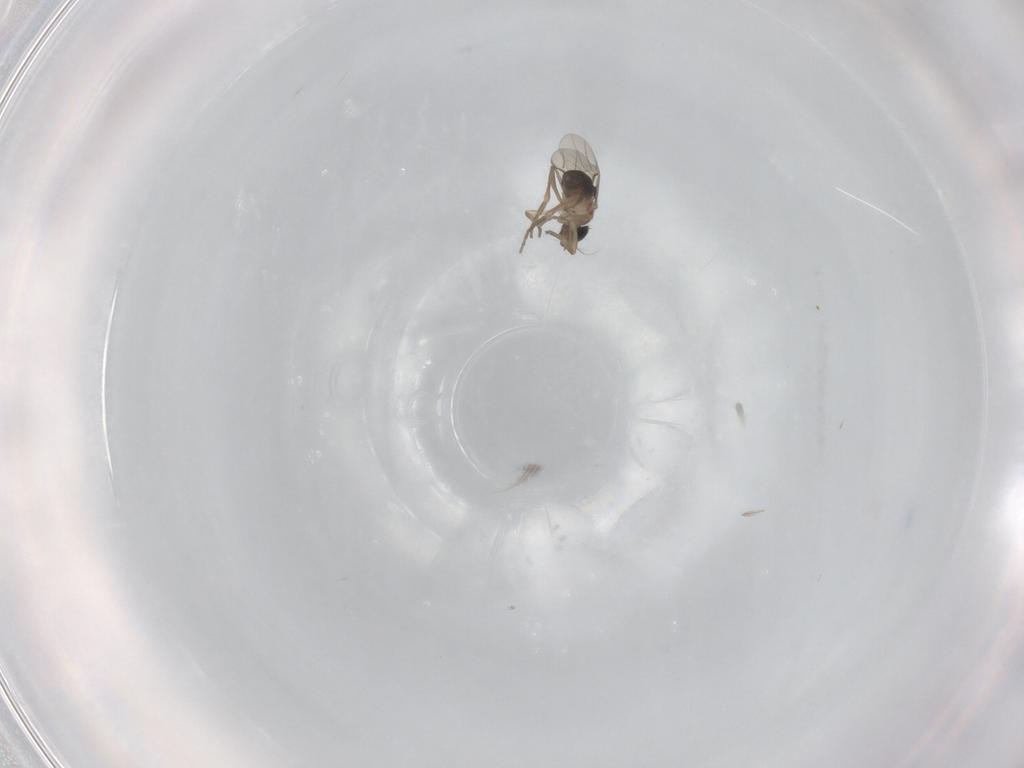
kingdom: Animalia
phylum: Arthropoda
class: Insecta
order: Diptera
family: Phoridae
